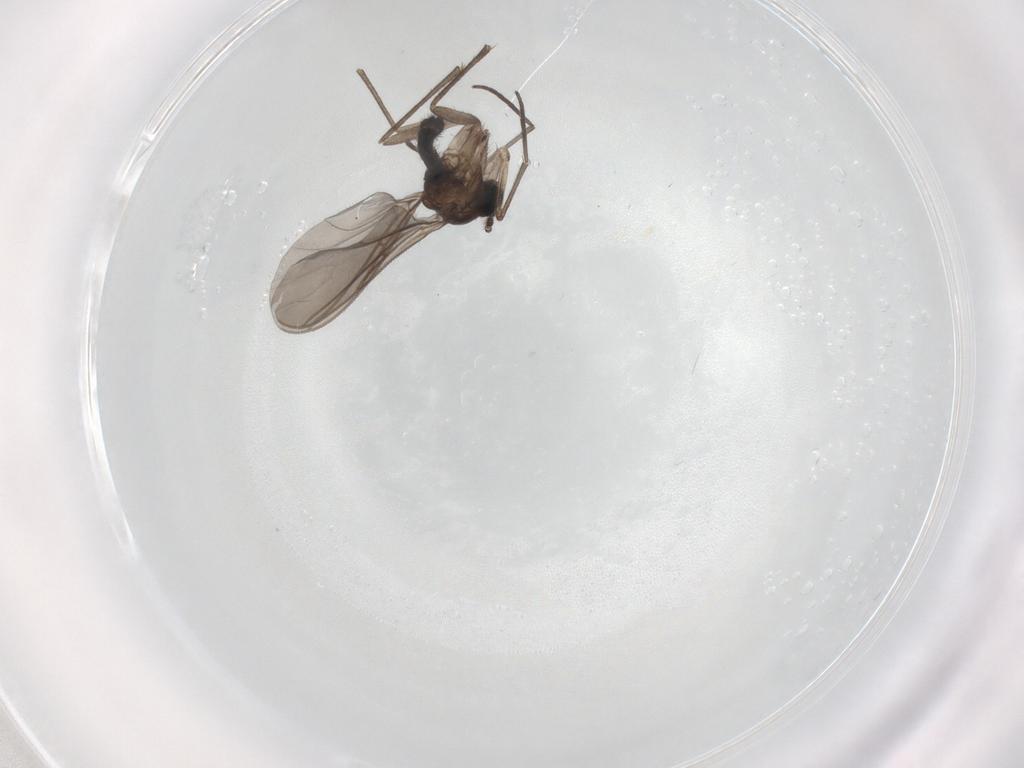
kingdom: Animalia
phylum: Arthropoda
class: Insecta
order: Diptera
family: Sciaridae
